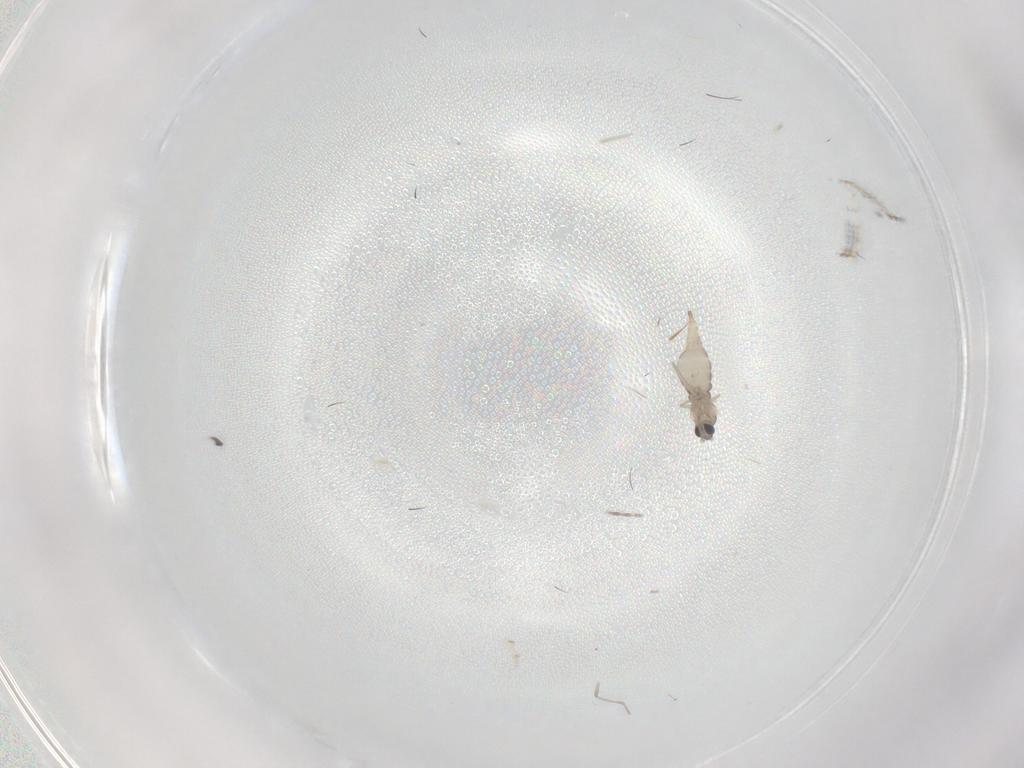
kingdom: Animalia
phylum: Arthropoda
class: Insecta
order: Diptera
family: Cecidomyiidae
